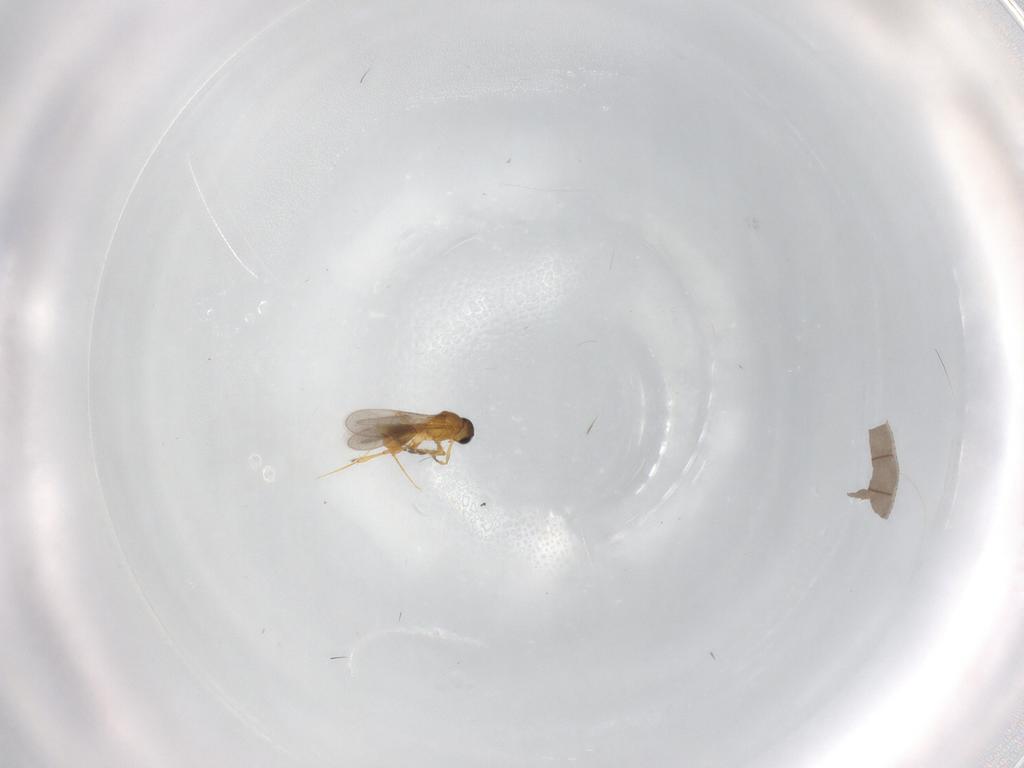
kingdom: Animalia
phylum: Arthropoda
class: Insecta
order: Hymenoptera
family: Platygastridae
